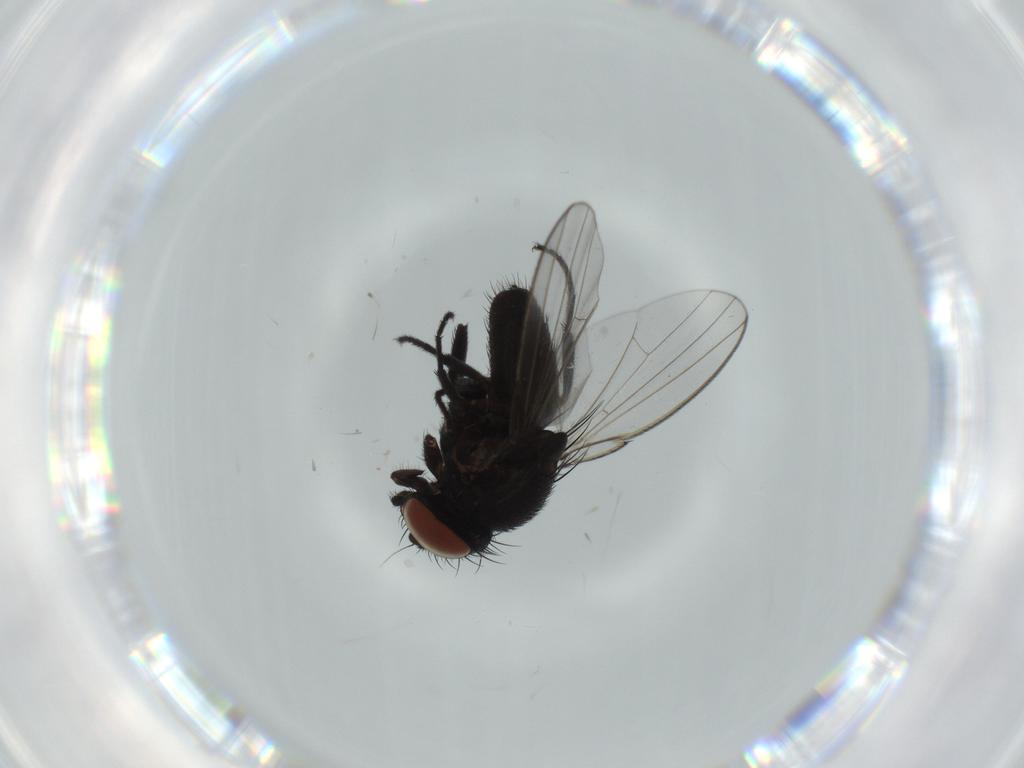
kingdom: Animalia
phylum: Arthropoda
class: Insecta
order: Diptera
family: Milichiidae
